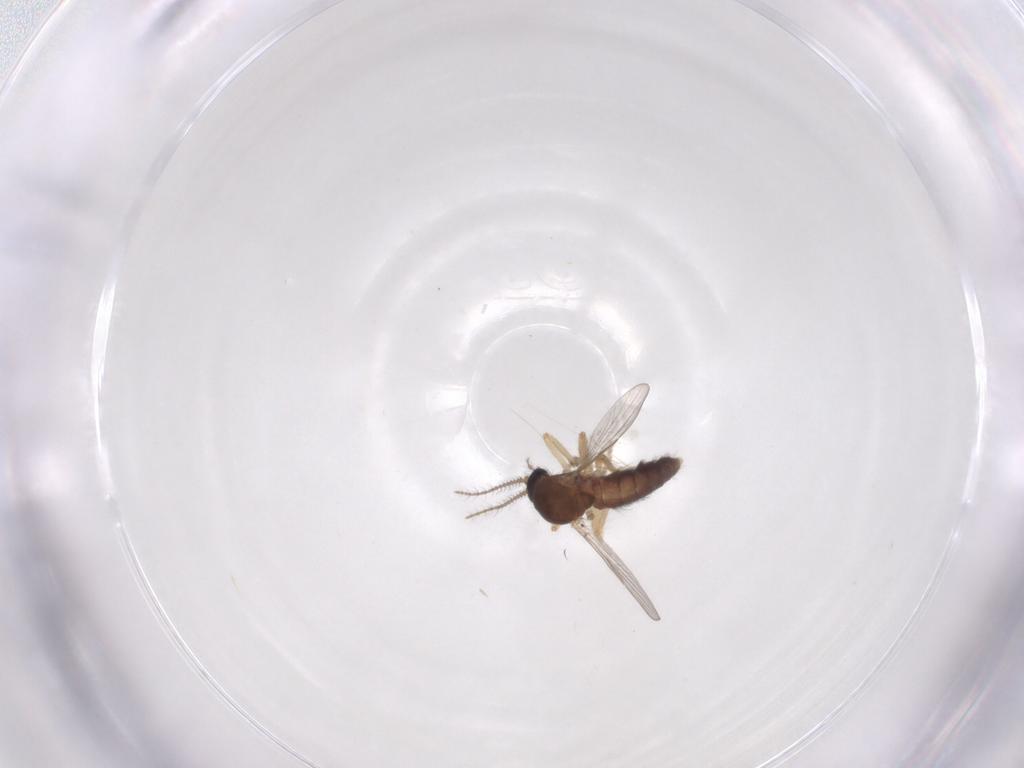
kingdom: Animalia
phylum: Arthropoda
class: Insecta
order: Diptera
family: Ceratopogonidae
